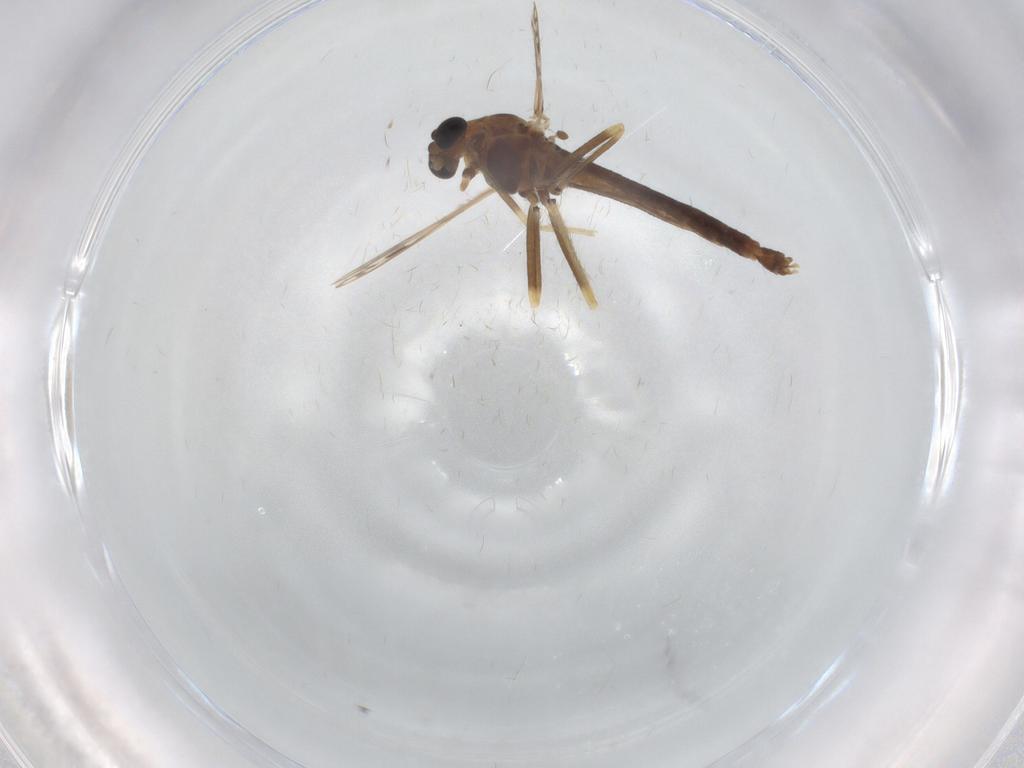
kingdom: Animalia
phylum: Arthropoda
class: Insecta
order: Diptera
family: Chironomidae
